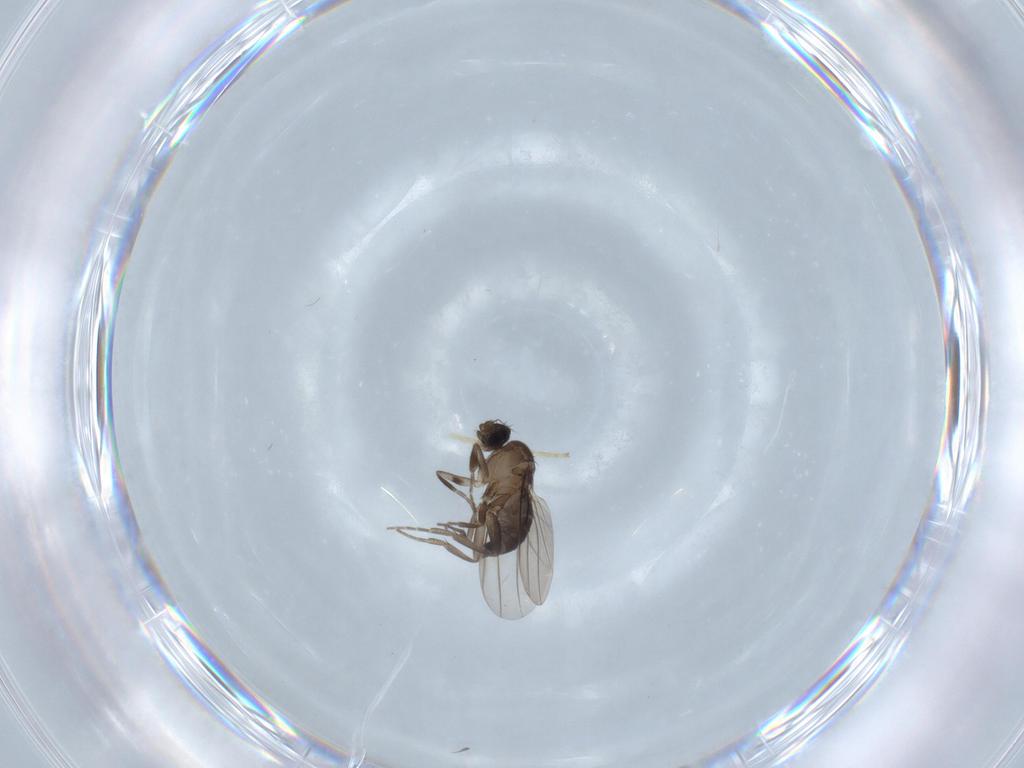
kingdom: Animalia
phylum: Arthropoda
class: Insecta
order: Diptera
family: Phoridae
